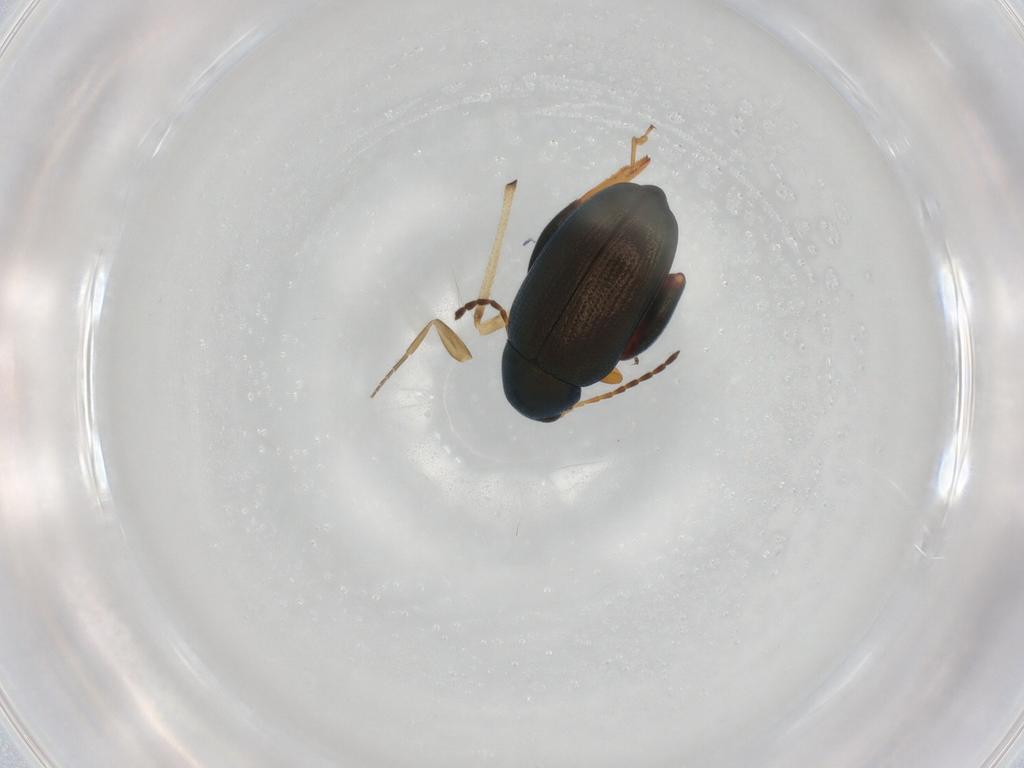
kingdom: Animalia
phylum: Arthropoda
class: Insecta
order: Coleoptera
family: Chrysomelidae
